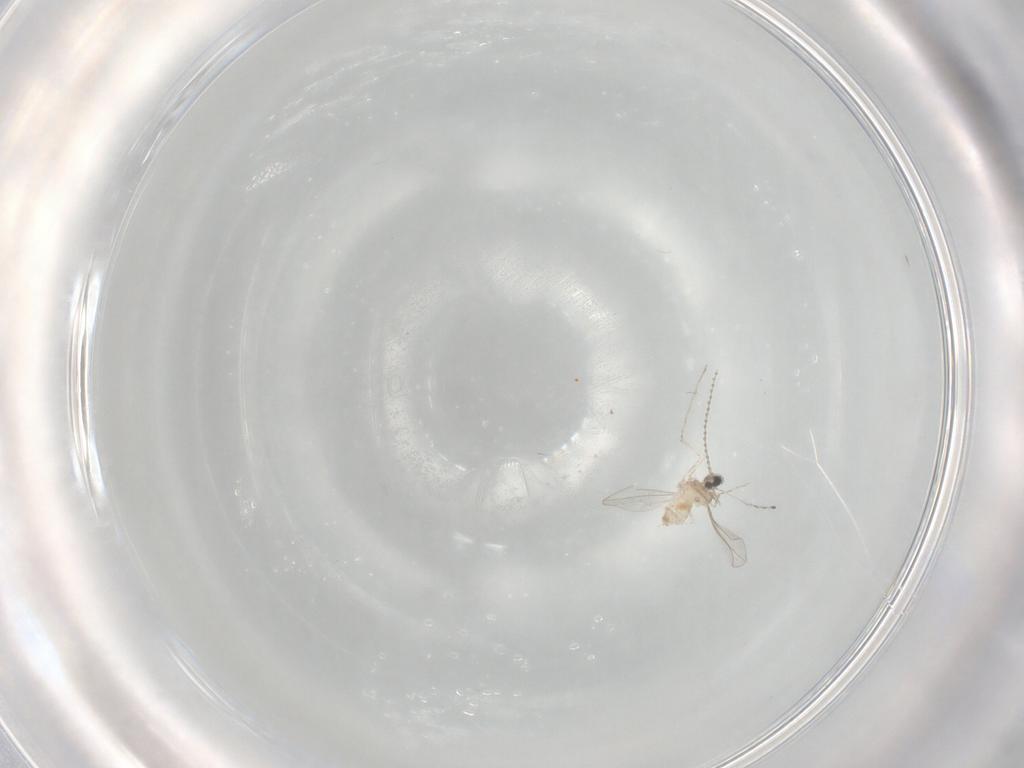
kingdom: Animalia
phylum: Arthropoda
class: Insecta
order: Diptera
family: Cecidomyiidae
